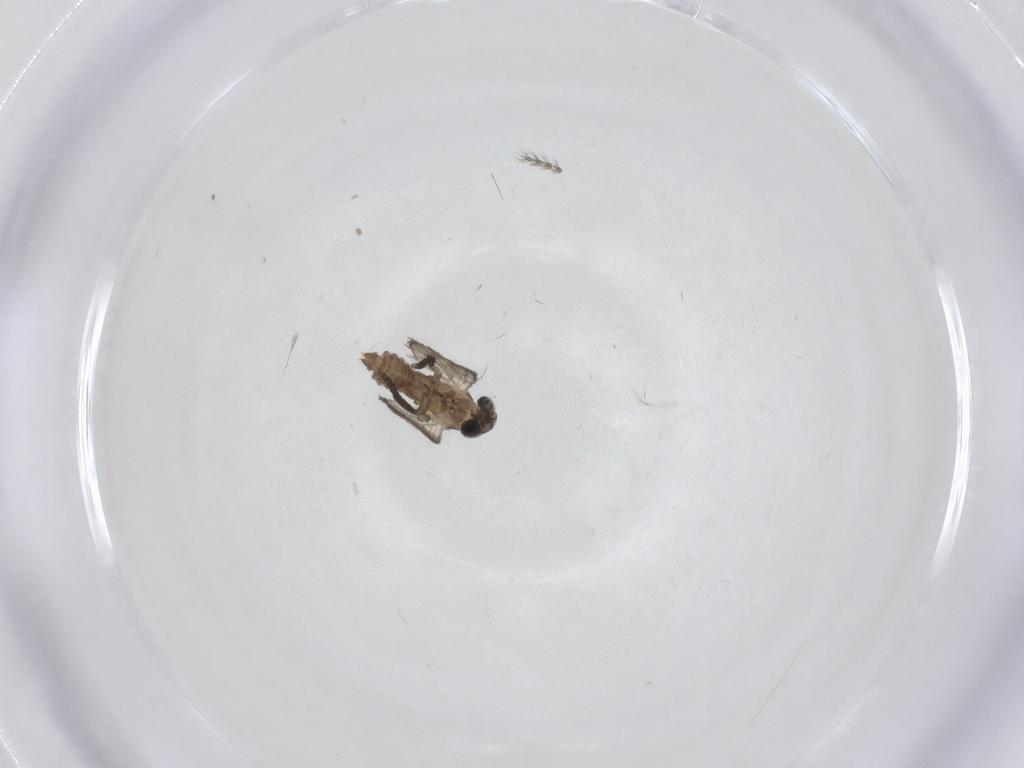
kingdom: Animalia
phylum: Arthropoda
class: Insecta
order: Diptera
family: Psychodidae
